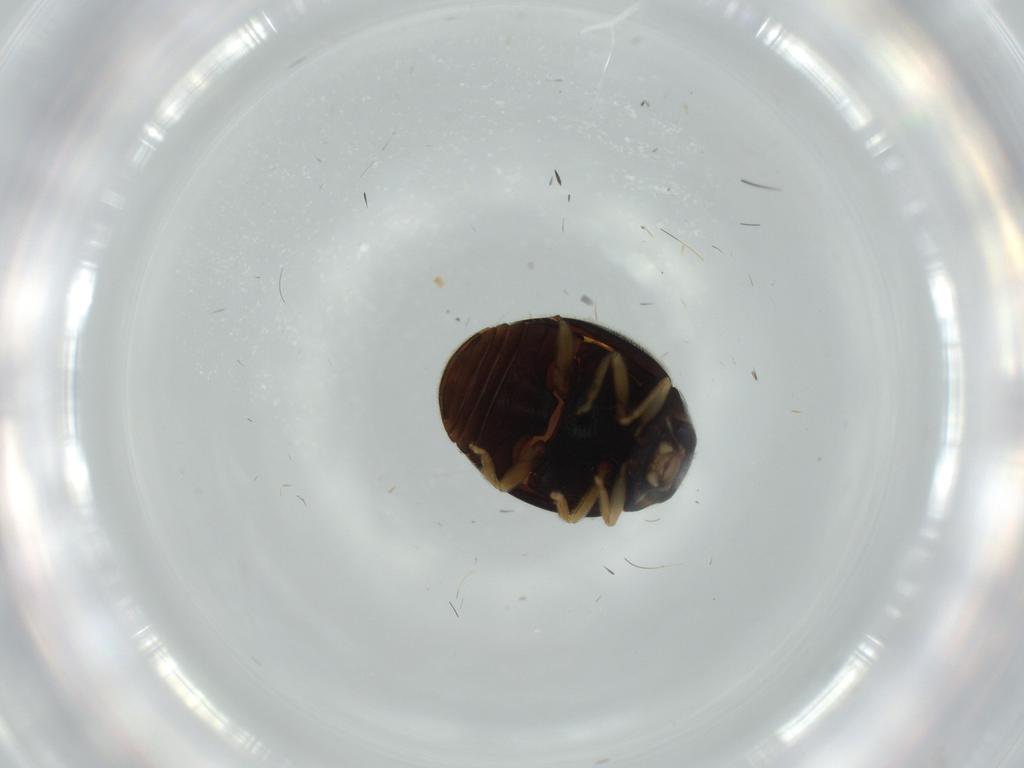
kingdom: Animalia
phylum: Arthropoda
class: Insecta
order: Coleoptera
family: Coccinellidae
